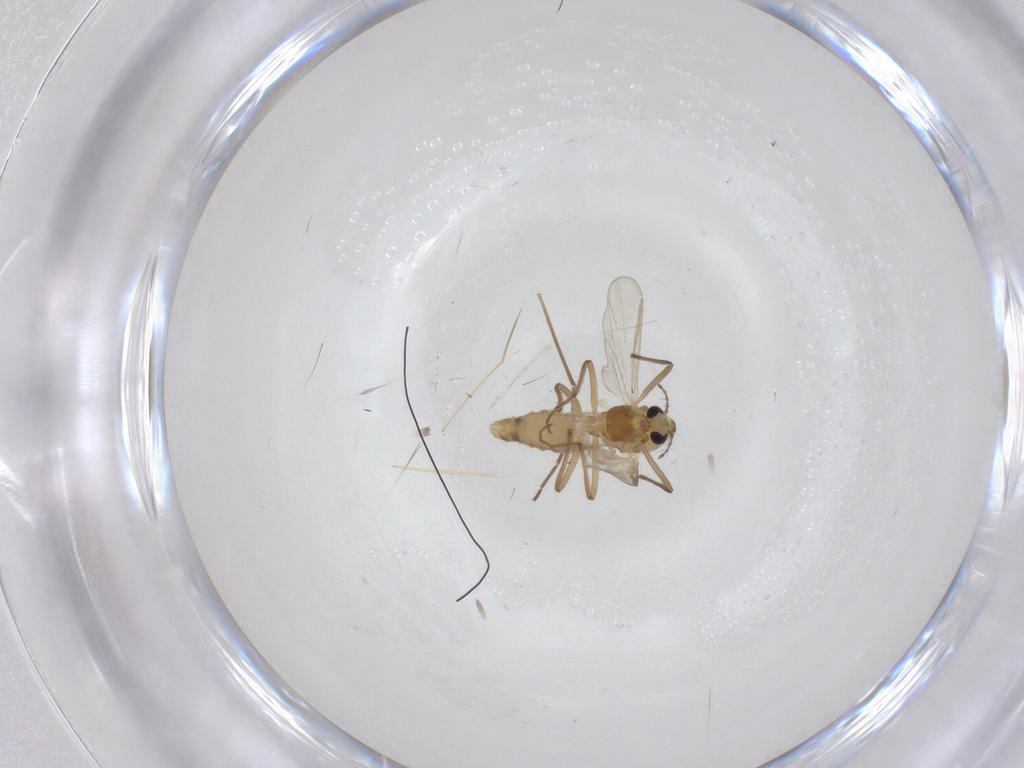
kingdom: Animalia
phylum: Arthropoda
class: Insecta
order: Diptera
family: Chironomidae
